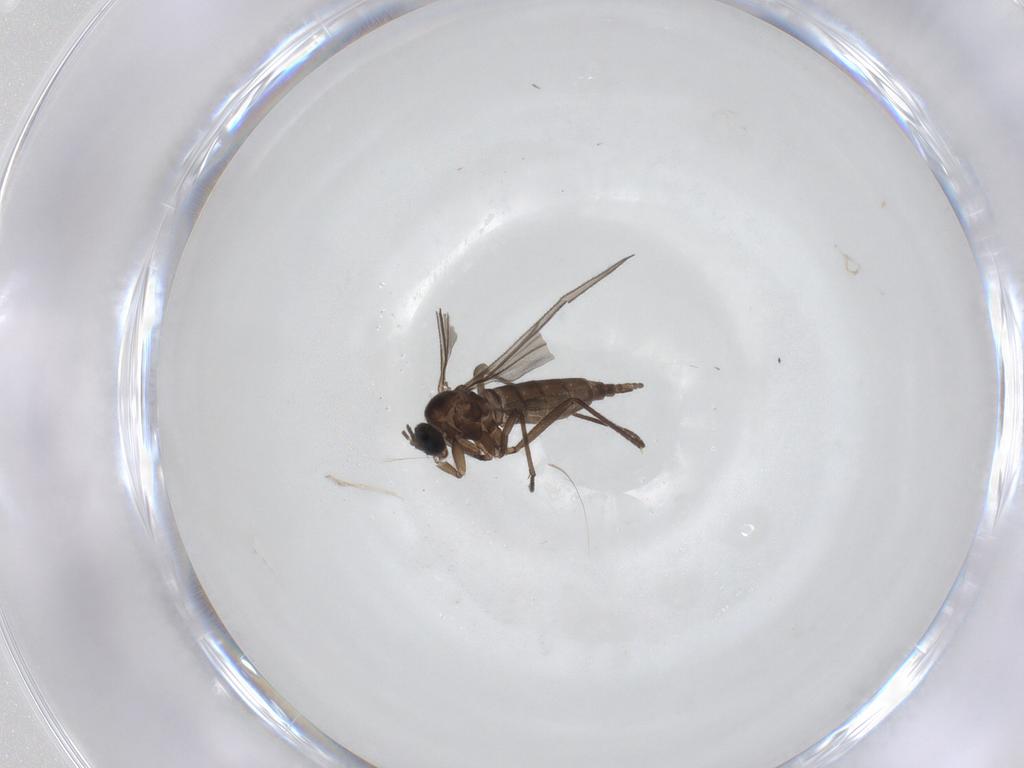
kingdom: Animalia
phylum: Arthropoda
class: Insecta
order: Diptera
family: Sciaridae
